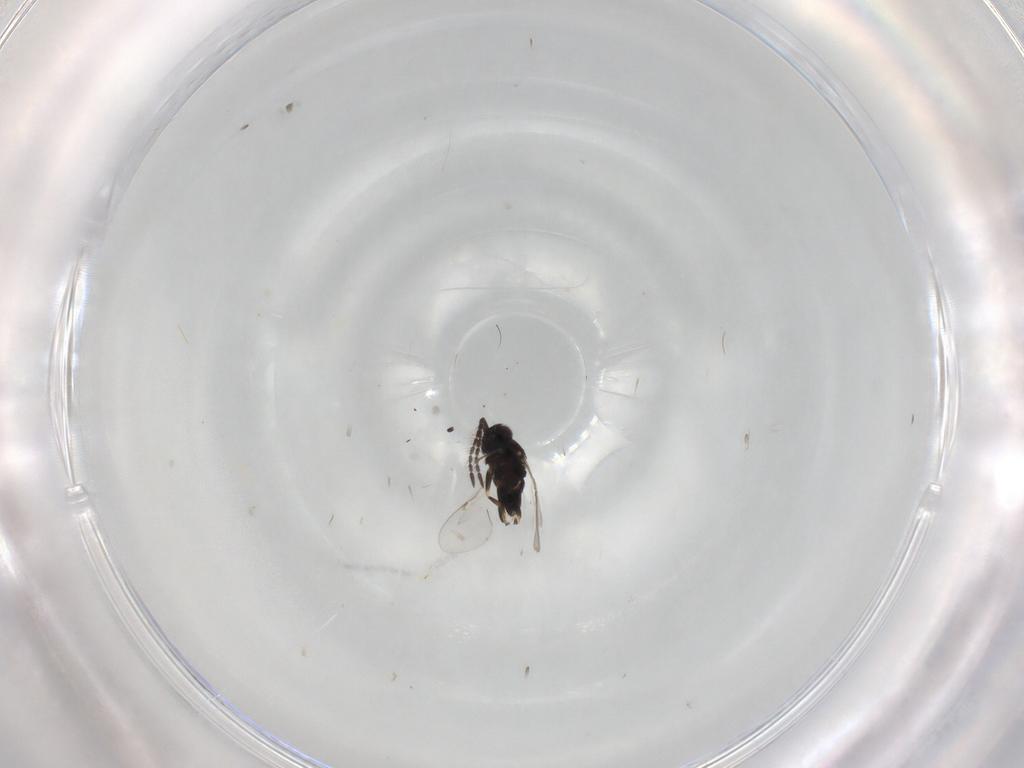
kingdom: Animalia
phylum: Arthropoda
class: Insecta
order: Hymenoptera
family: Encyrtidae
